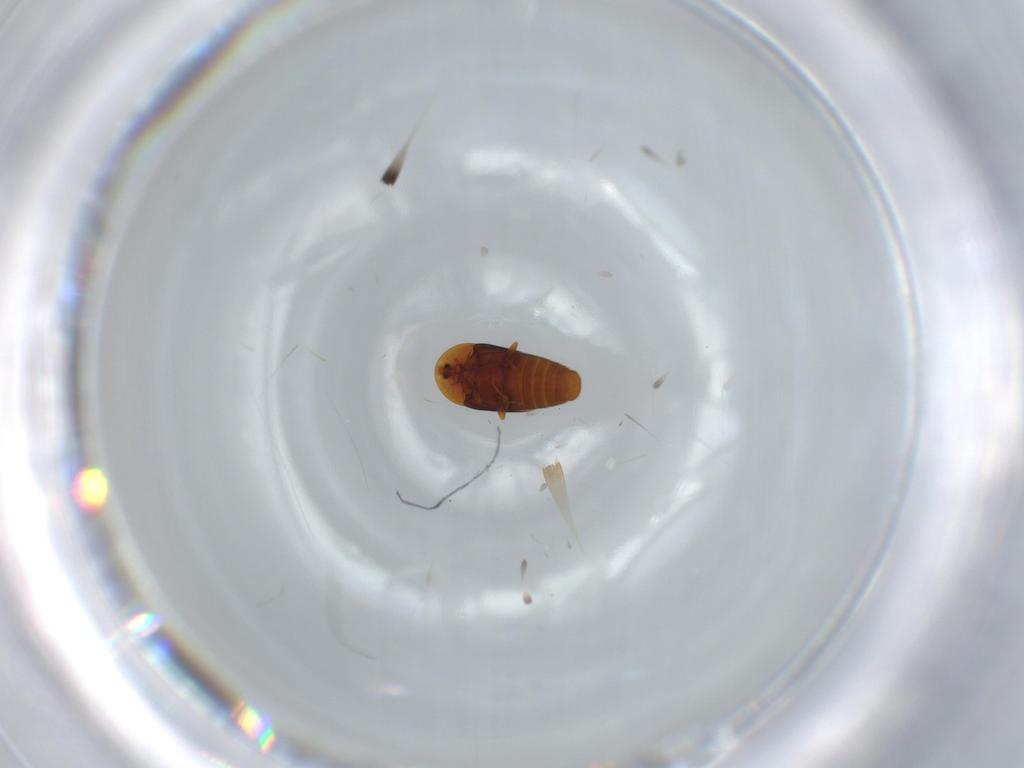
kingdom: Animalia
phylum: Arthropoda
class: Insecta
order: Coleoptera
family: Corylophidae
